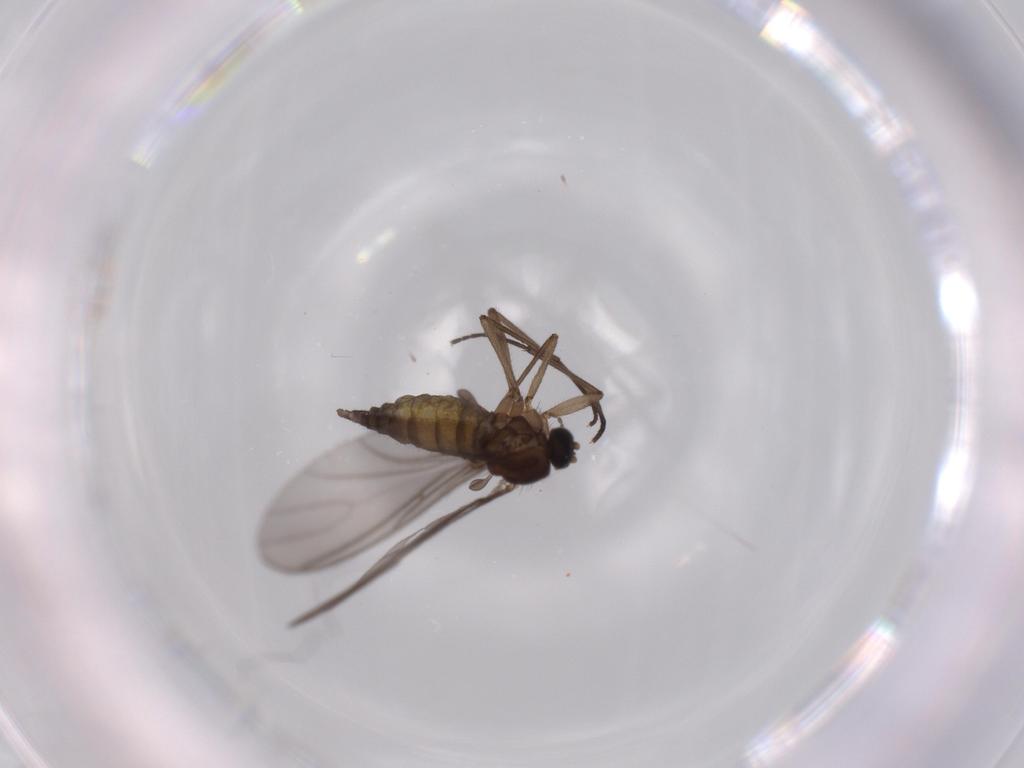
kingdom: Animalia
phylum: Arthropoda
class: Insecta
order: Diptera
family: Sciaridae
